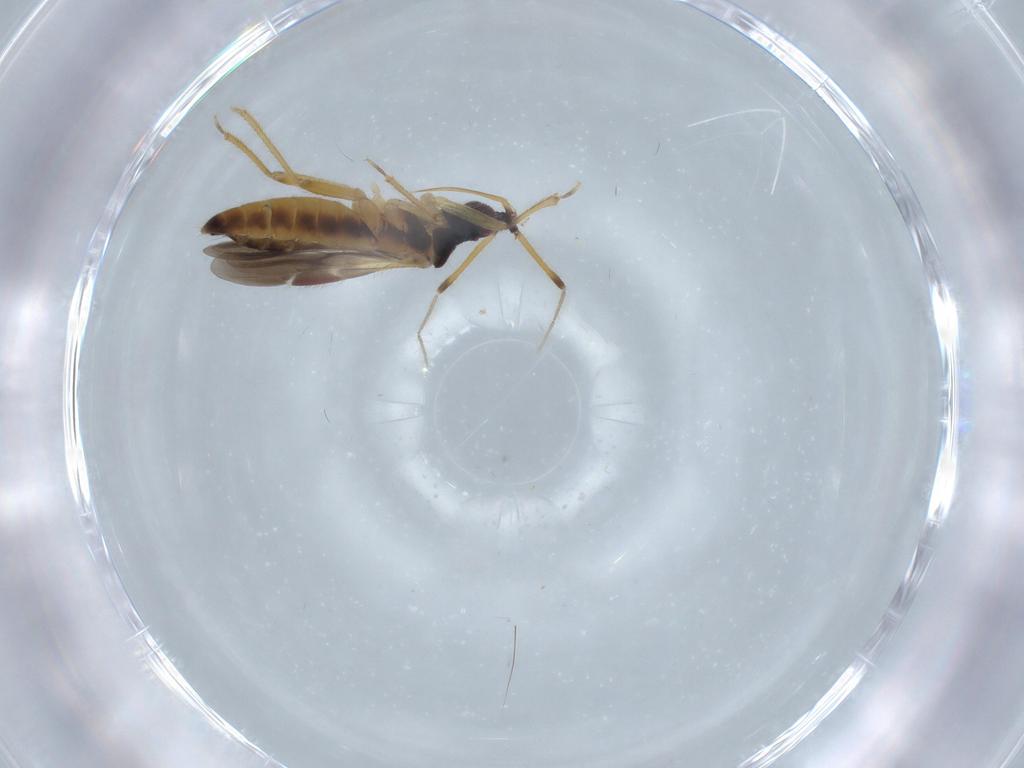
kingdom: Animalia
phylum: Arthropoda
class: Insecta
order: Hemiptera
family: Lasiochilidae
